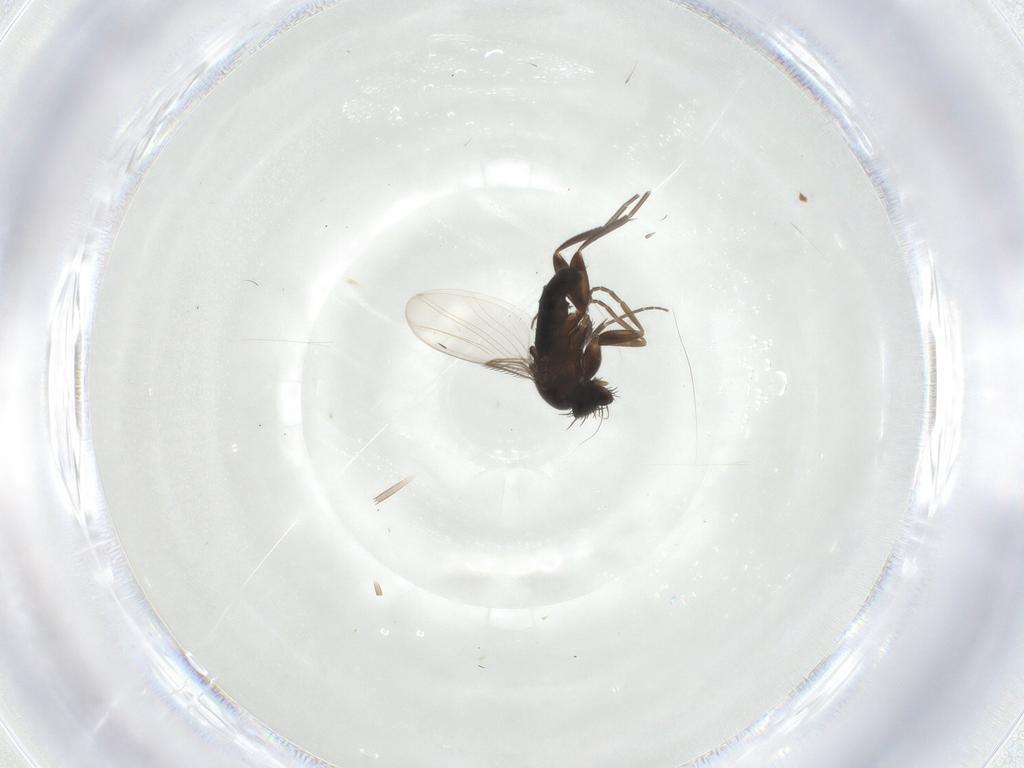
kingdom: Animalia
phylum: Arthropoda
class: Insecta
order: Diptera
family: Phoridae
